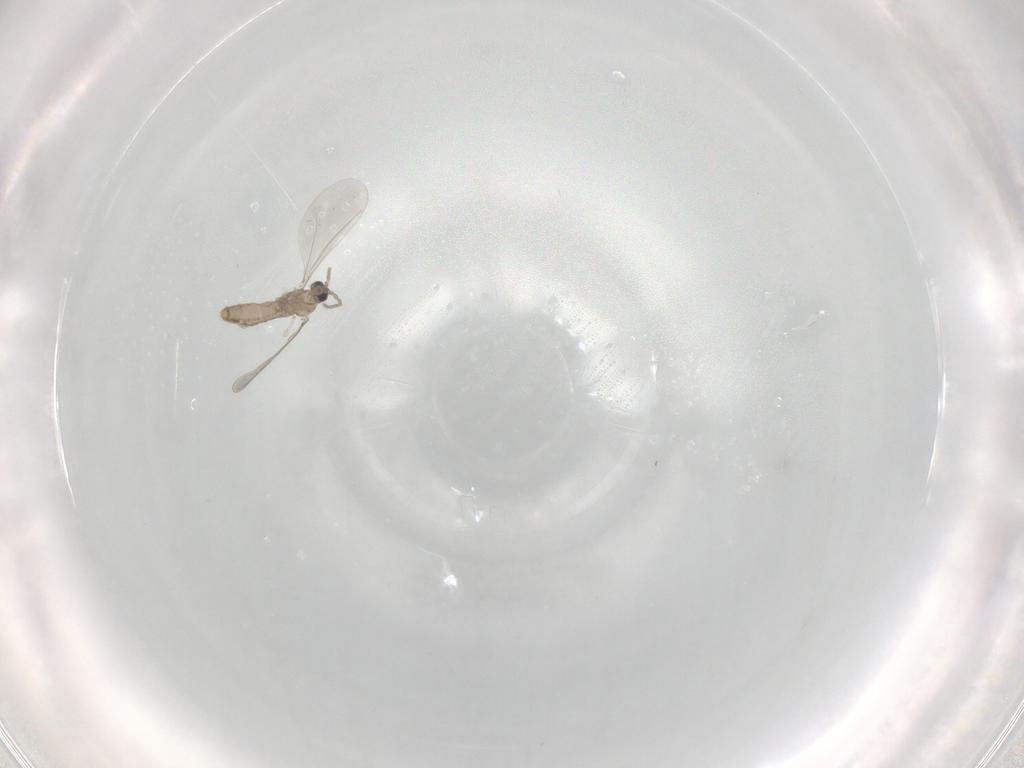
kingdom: Animalia
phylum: Arthropoda
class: Insecta
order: Diptera
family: Cecidomyiidae
